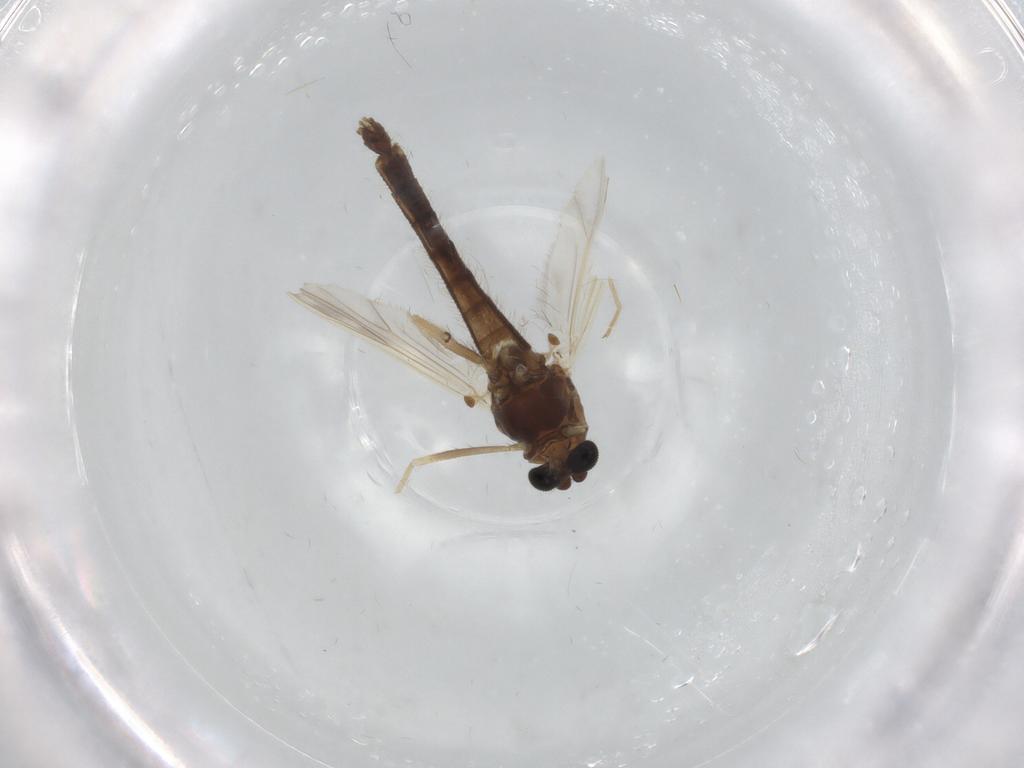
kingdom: Animalia
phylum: Arthropoda
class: Insecta
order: Diptera
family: Chironomidae
